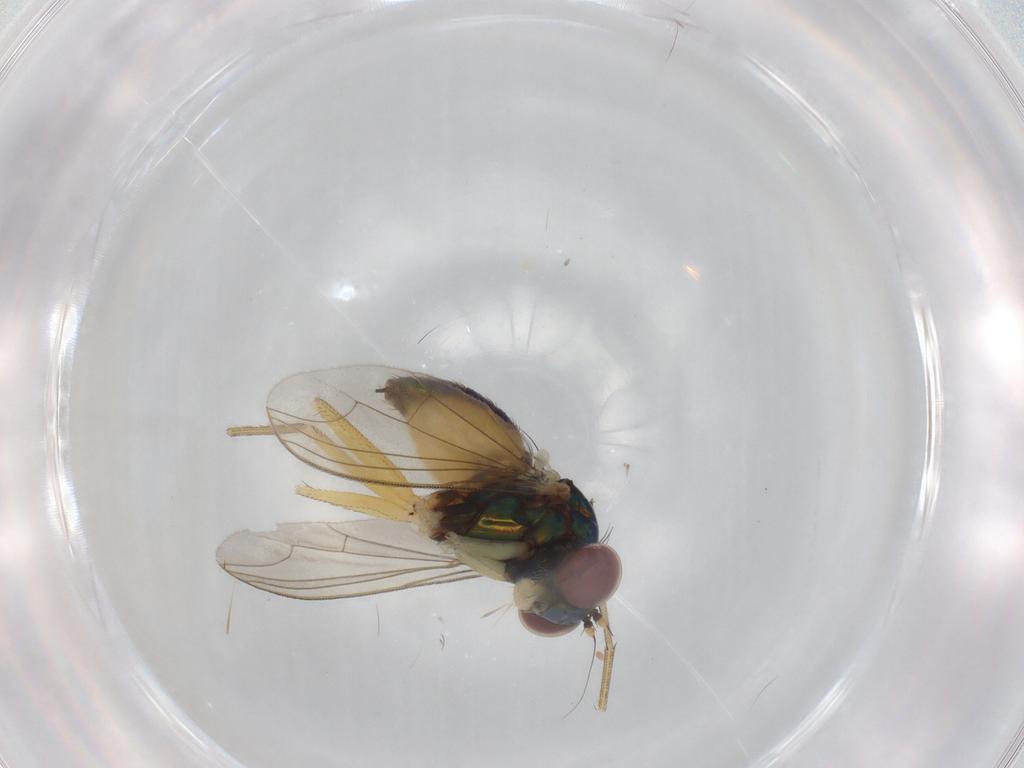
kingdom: Animalia
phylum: Arthropoda
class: Insecta
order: Diptera
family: Dolichopodidae
